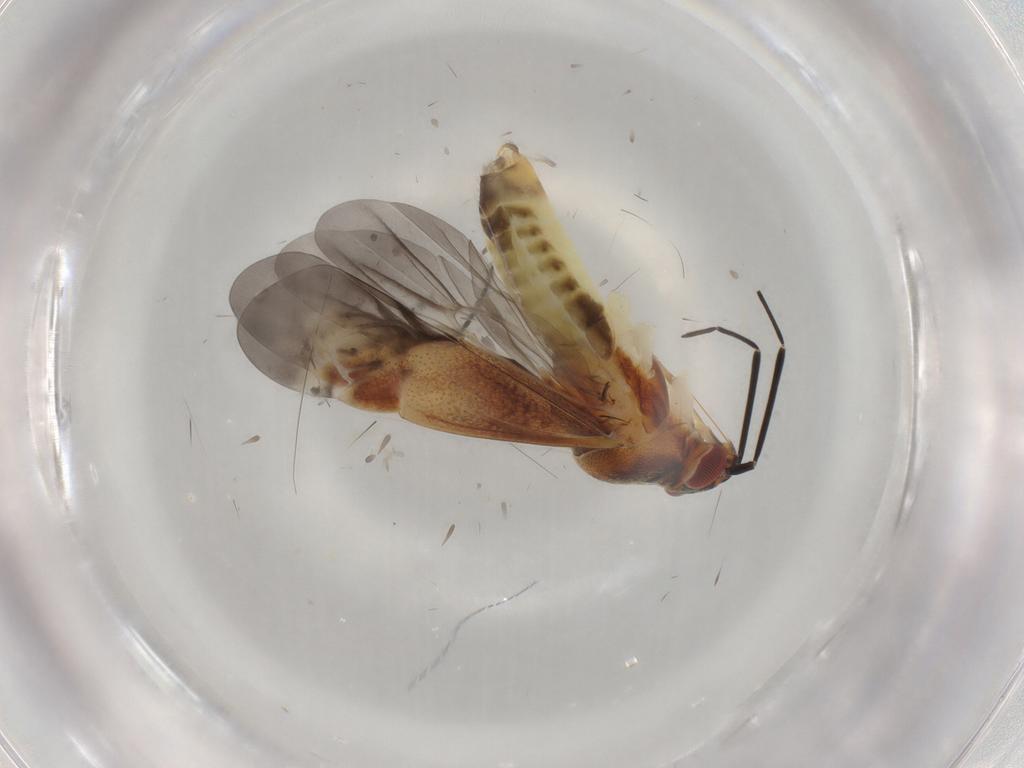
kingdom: Animalia
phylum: Arthropoda
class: Insecta
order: Hemiptera
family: Miridae
